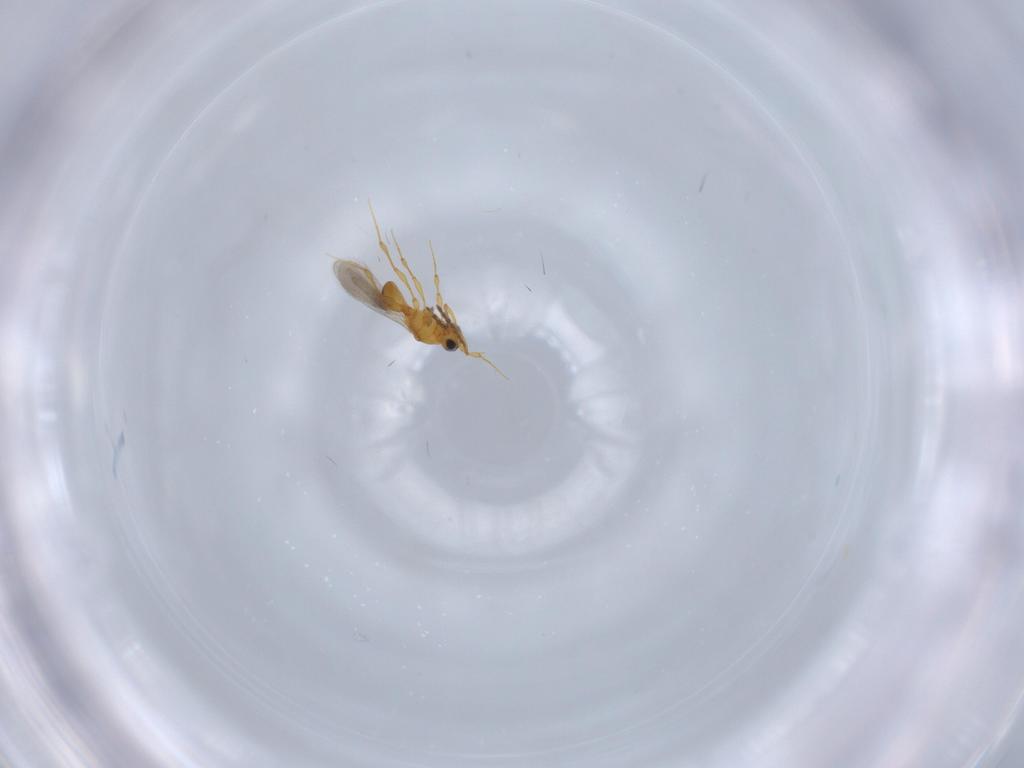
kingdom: Animalia
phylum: Arthropoda
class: Insecta
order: Hymenoptera
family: Platygastridae
